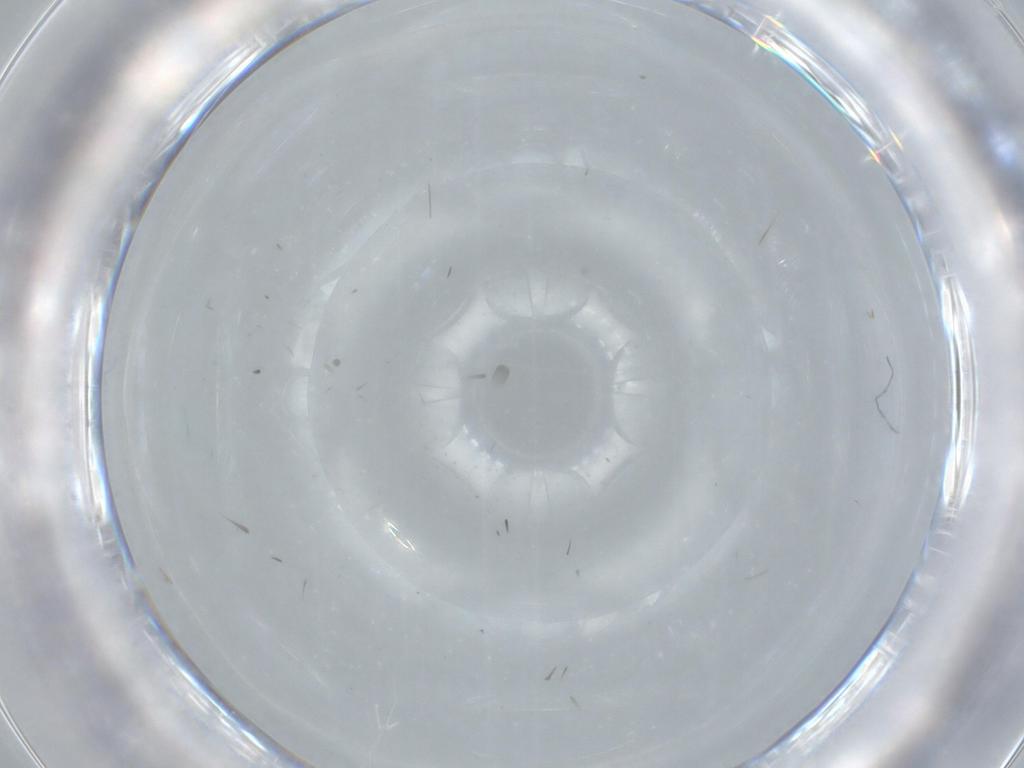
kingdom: Animalia
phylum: Arthropoda
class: Insecta
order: Diptera
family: Ceratopogonidae
